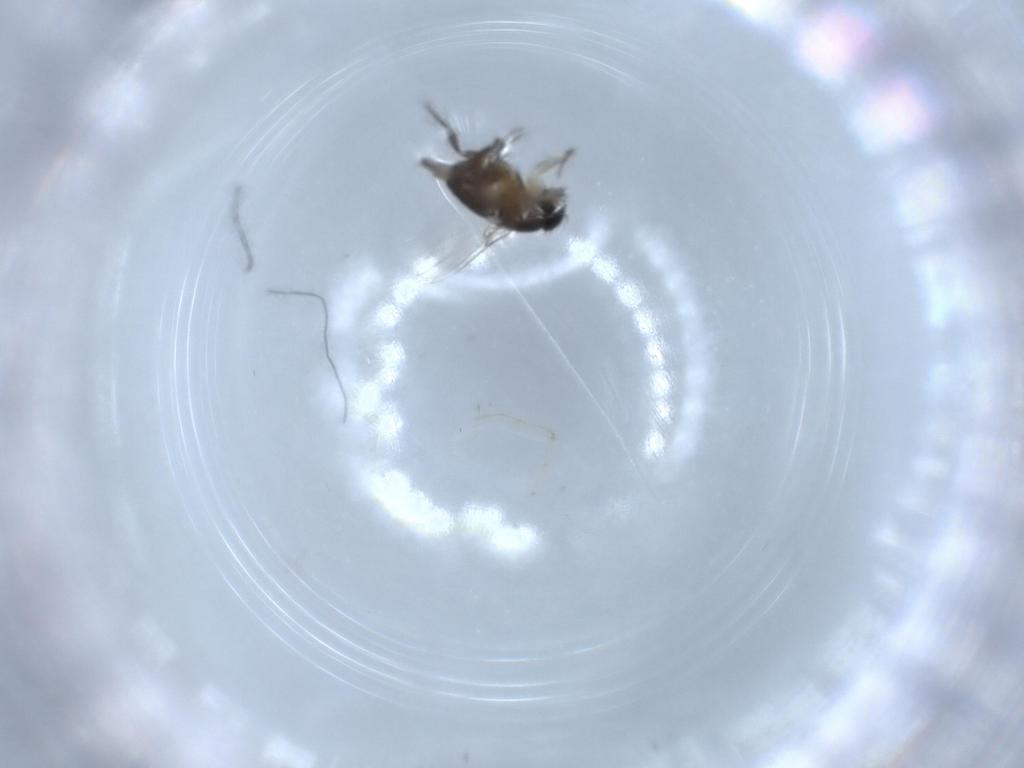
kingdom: Animalia
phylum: Arthropoda
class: Insecta
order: Diptera
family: Phoridae
